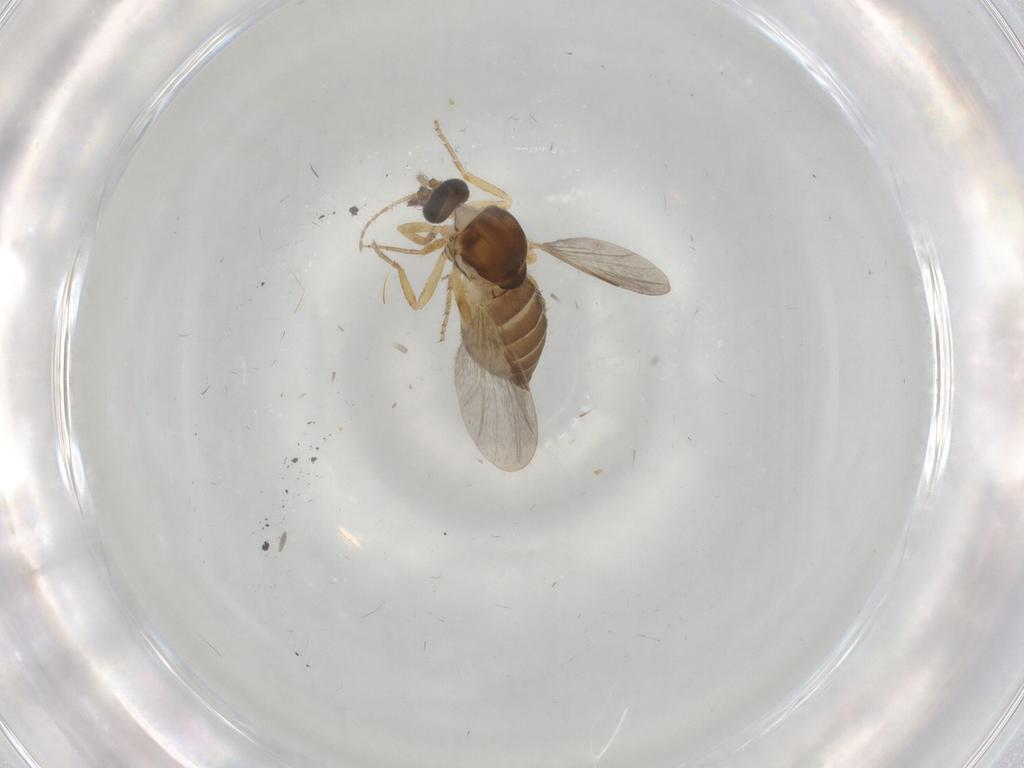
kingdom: Animalia
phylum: Arthropoda
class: Insecta
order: Diptera
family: Ceratopogonidae
